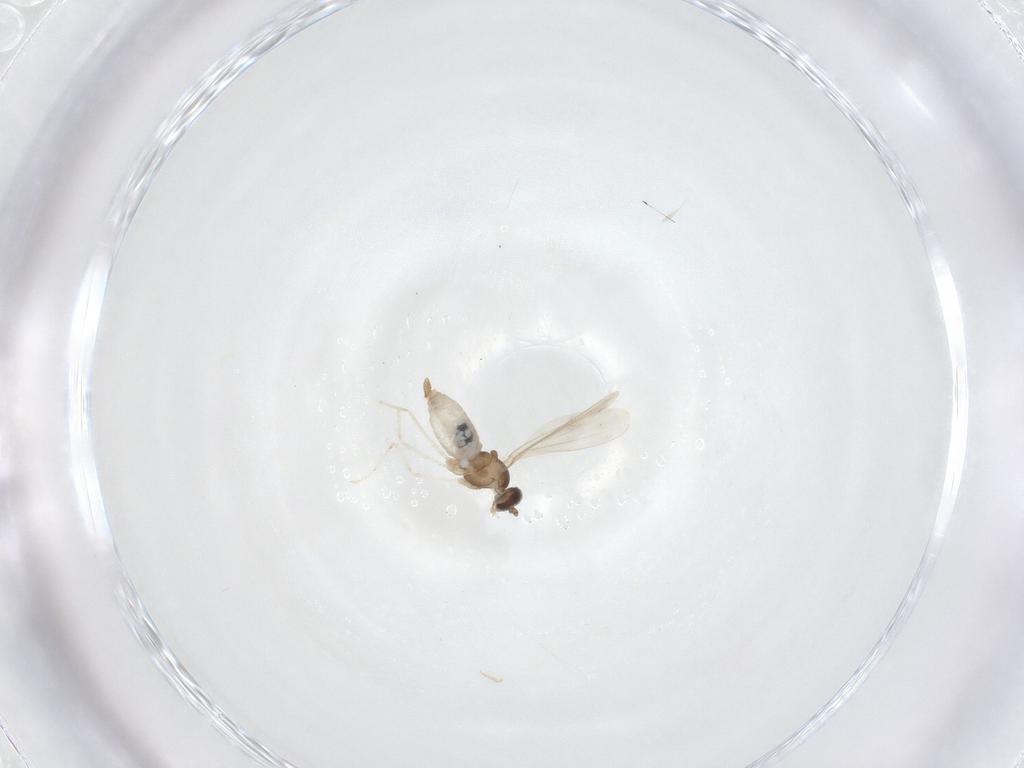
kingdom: Animalia
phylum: Arthropoda
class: Insecta
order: Diptera
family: Cecidomyiidae
